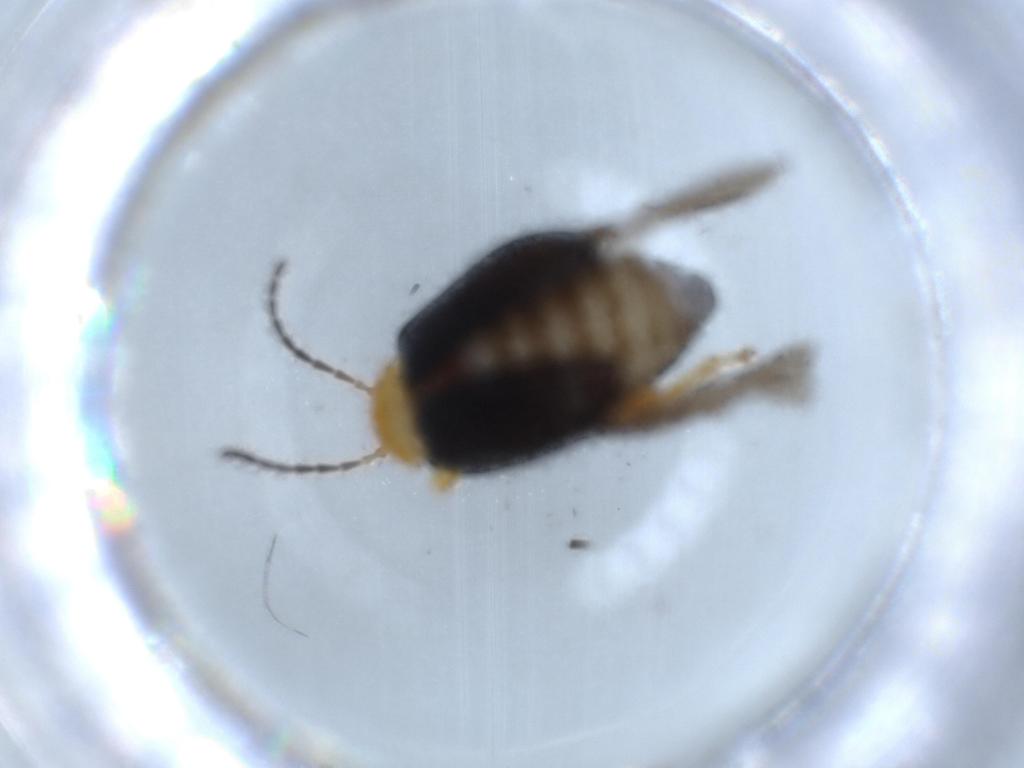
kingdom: Animalia
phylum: Arthropoda
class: Insecta
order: Coleoptera
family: Chrysomelidae
